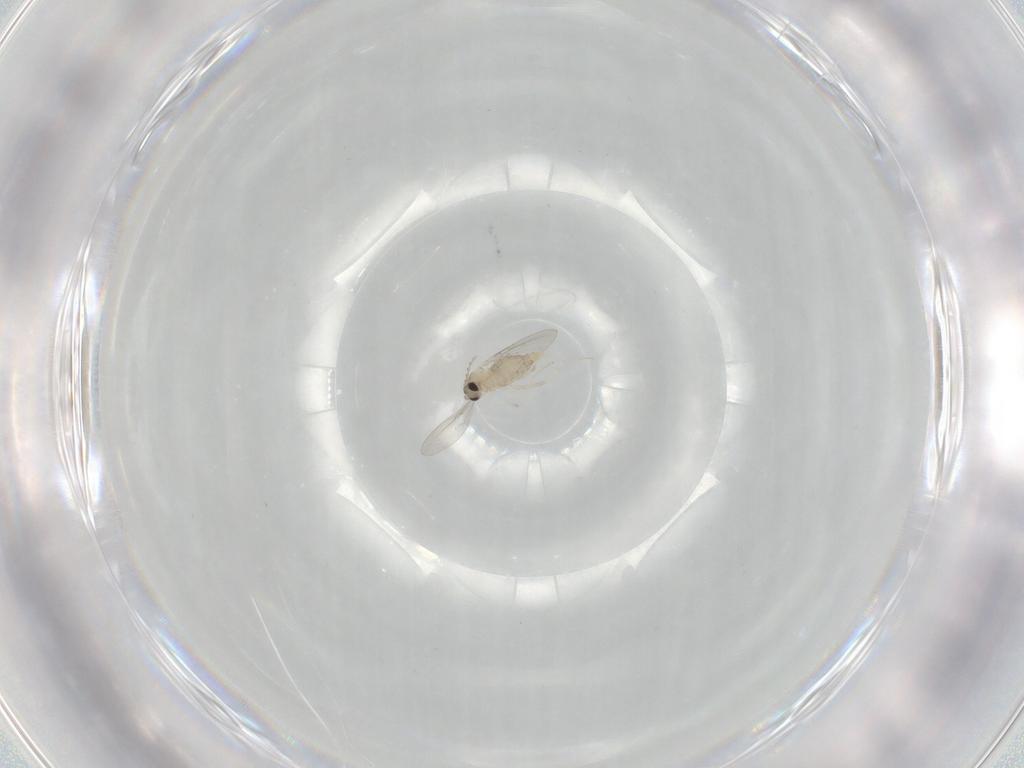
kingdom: Animalia
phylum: Arthropoda
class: Insecta
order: Diptera
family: Cecidomyiidae
